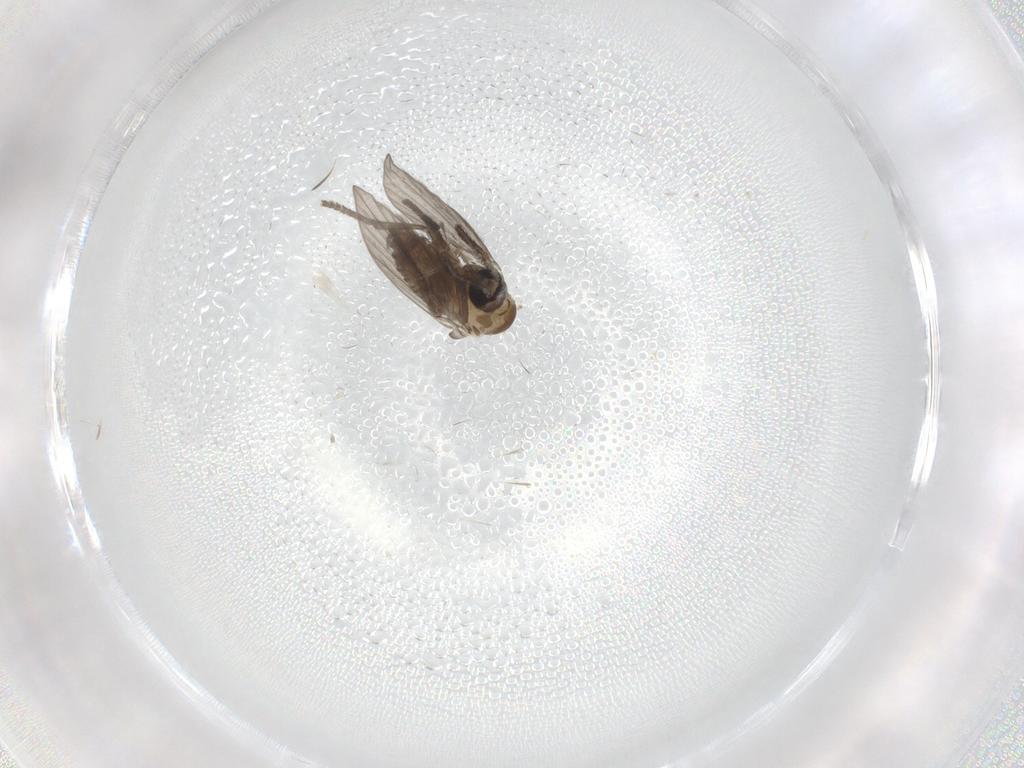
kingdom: Animalia
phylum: Arthropoda
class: Insecta
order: Diptera
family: Psychodidae
